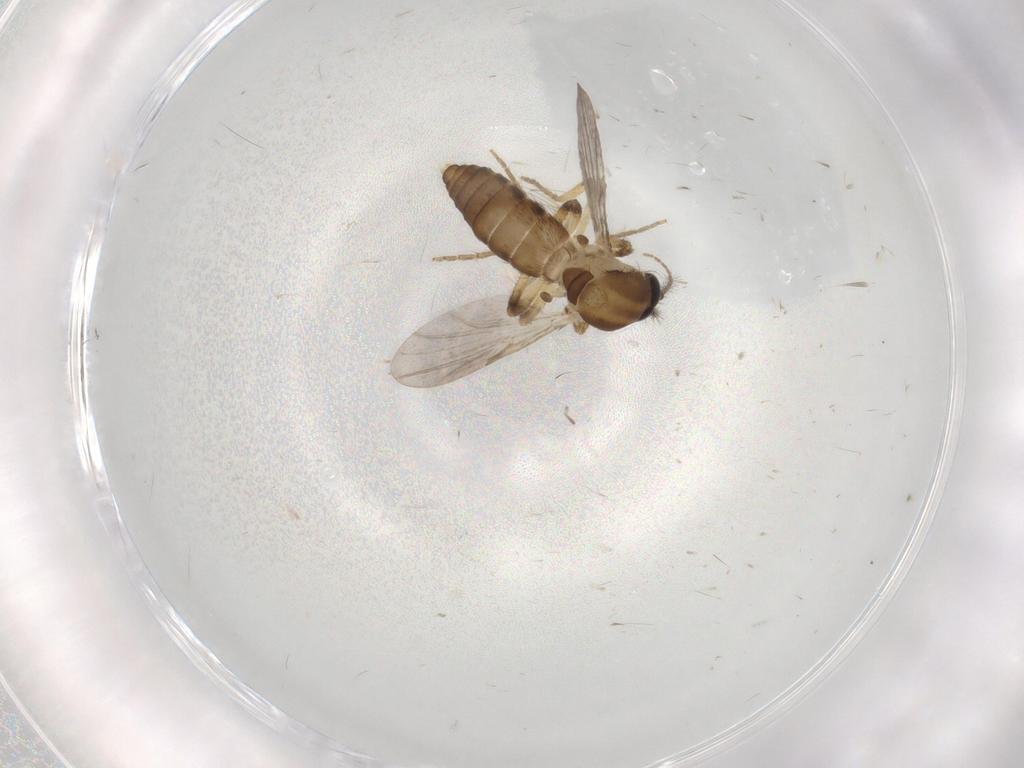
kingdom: Animalia
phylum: Arthropoda
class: Insecta
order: Diptera
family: Ceratopogonidae
